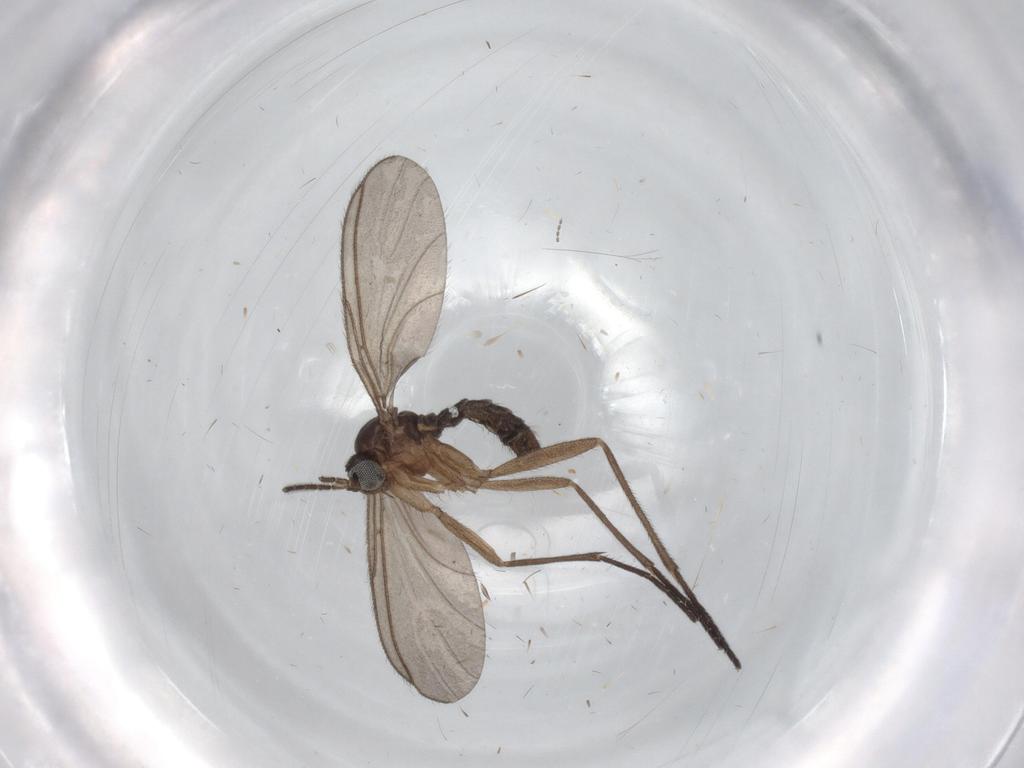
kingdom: Animalia
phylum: Arthropoda
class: Insecta
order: Diptera
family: Sciaridae
